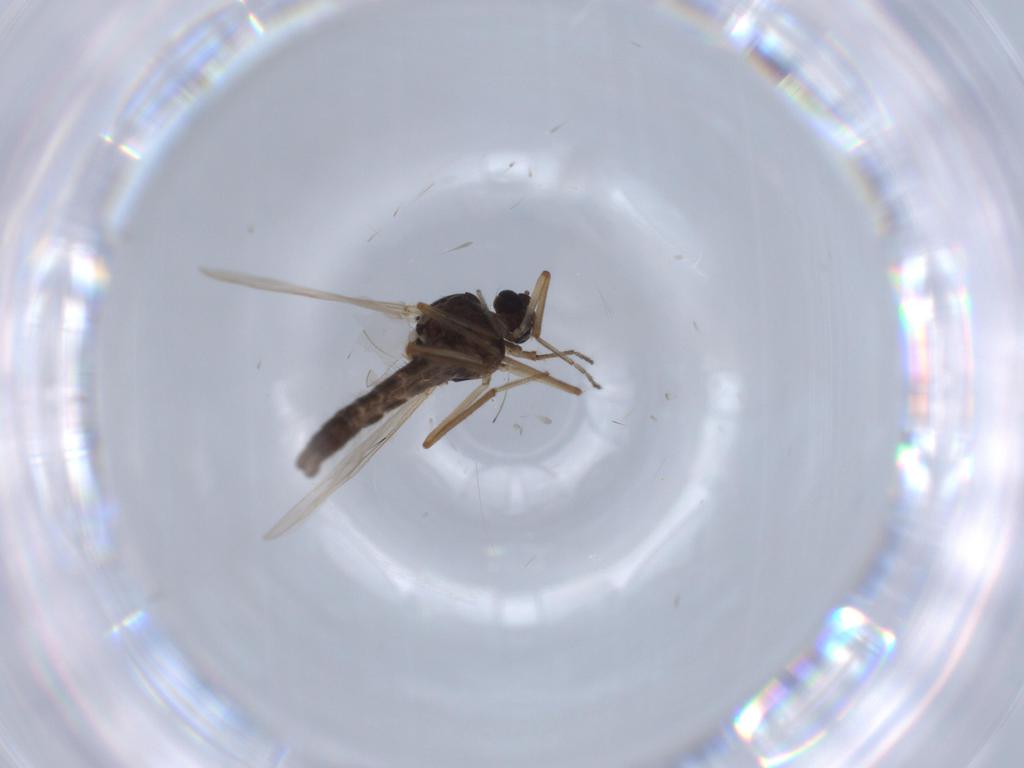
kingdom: Animalia
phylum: Arthropoda
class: Insecta
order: Diptera
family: Ceratopogonidae
